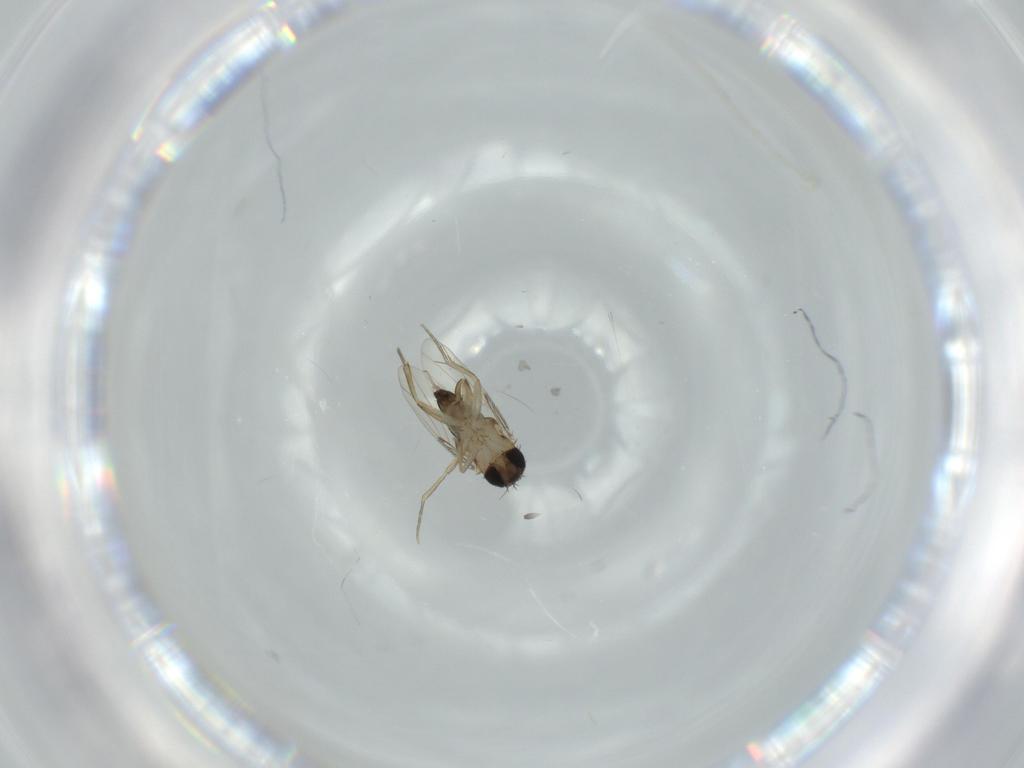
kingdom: Animalia
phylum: Arthropoda
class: Insecta
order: Diptera
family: Phoridae
